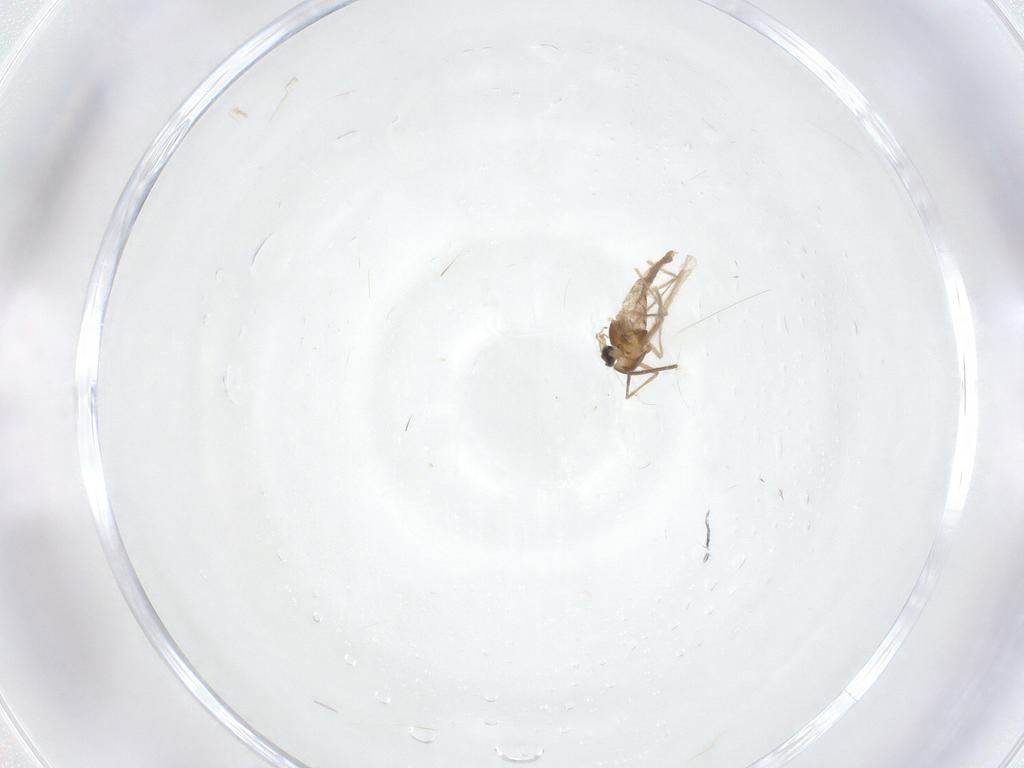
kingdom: Animalia
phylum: Arthropoda
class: Insecta
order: Diptera
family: Chironomidae
